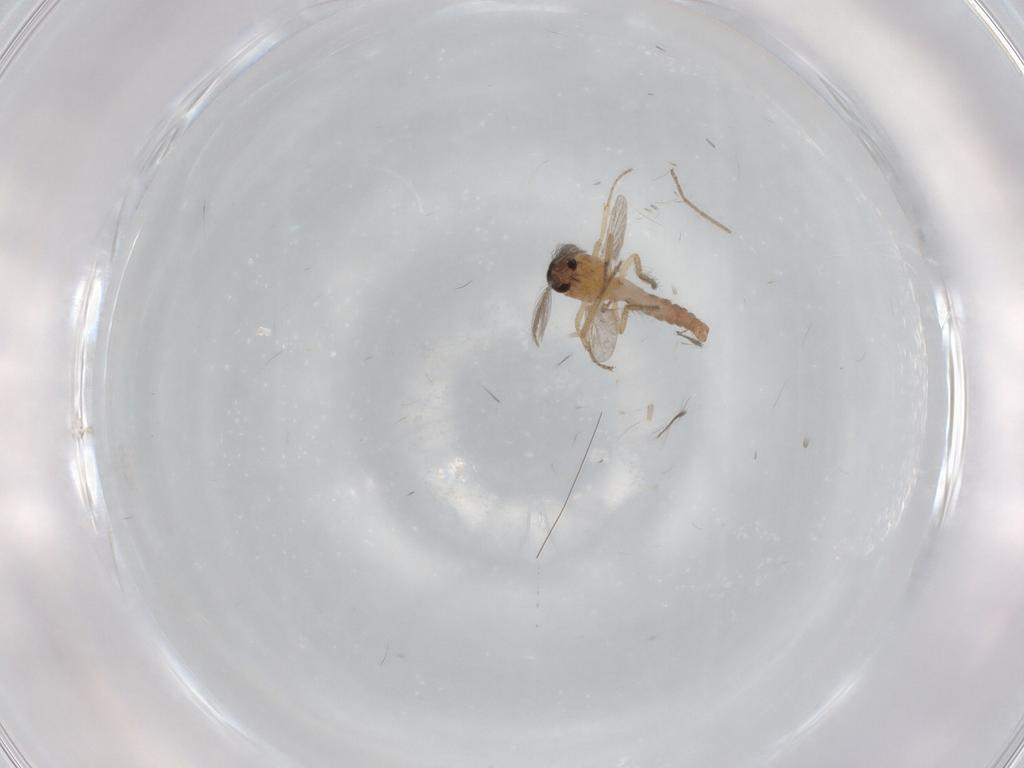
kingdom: Animalia
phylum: Arthropoda
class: Insecta
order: Diptera
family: Ceratopogonidae
